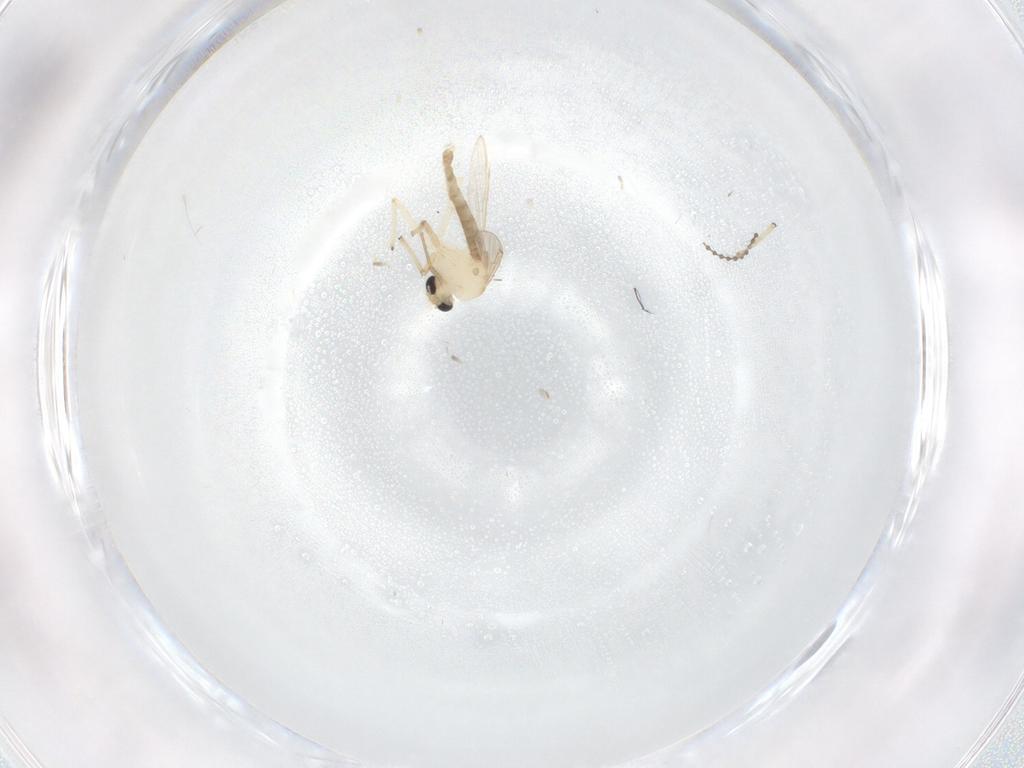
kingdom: Animalia
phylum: Arthropoda
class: Insecta
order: Diptera
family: Chironomidae
